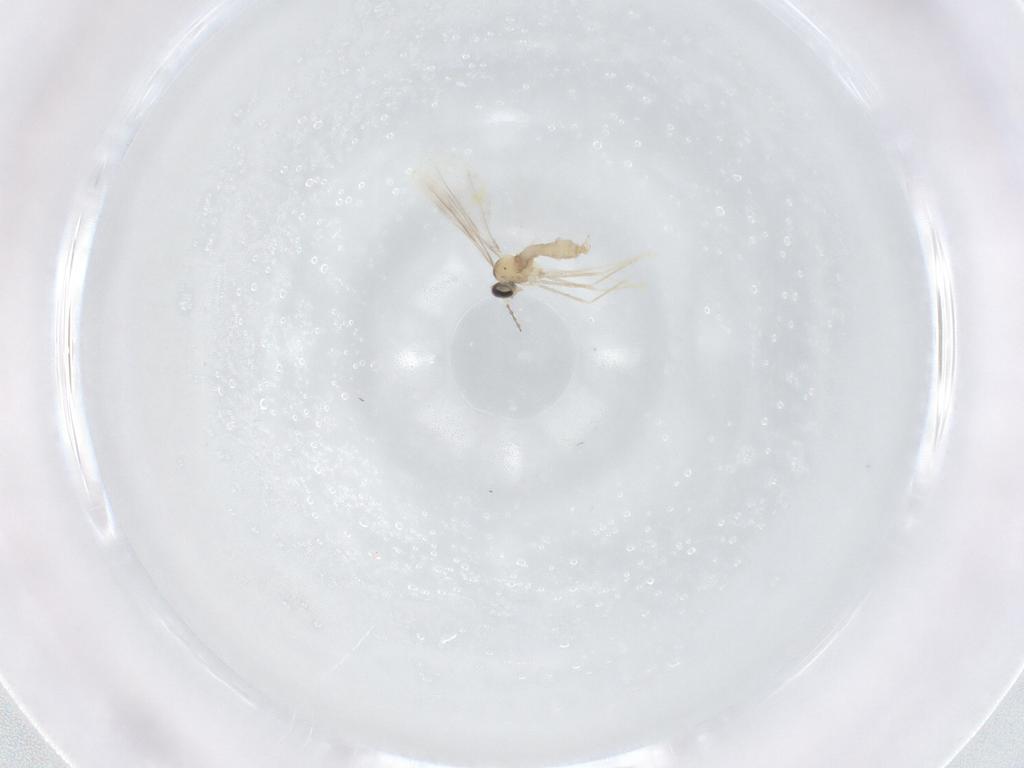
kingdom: Animalia
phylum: Arthropoda
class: Insecta
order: Diptera
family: Cecidomyiidae
